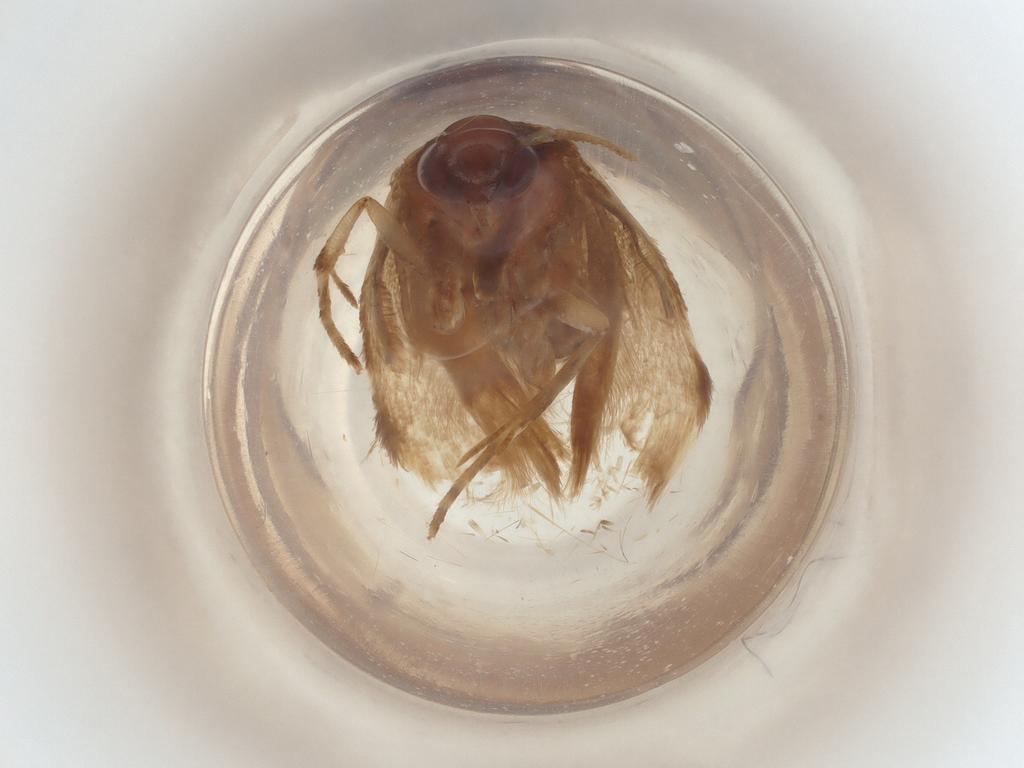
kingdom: Animalia
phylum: Arthropoda
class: Insecta
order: Lepidoptera
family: Gelechiidae
